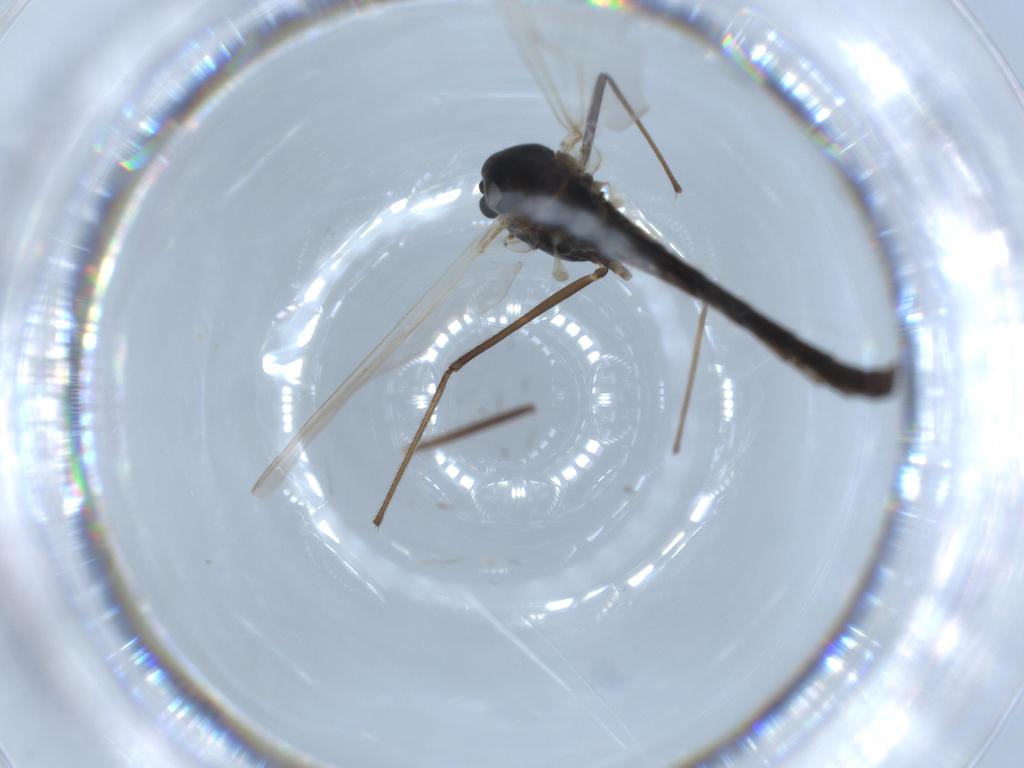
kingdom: Animalia
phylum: Arthropoda
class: Insecta
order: Diptera
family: Chironomidae
